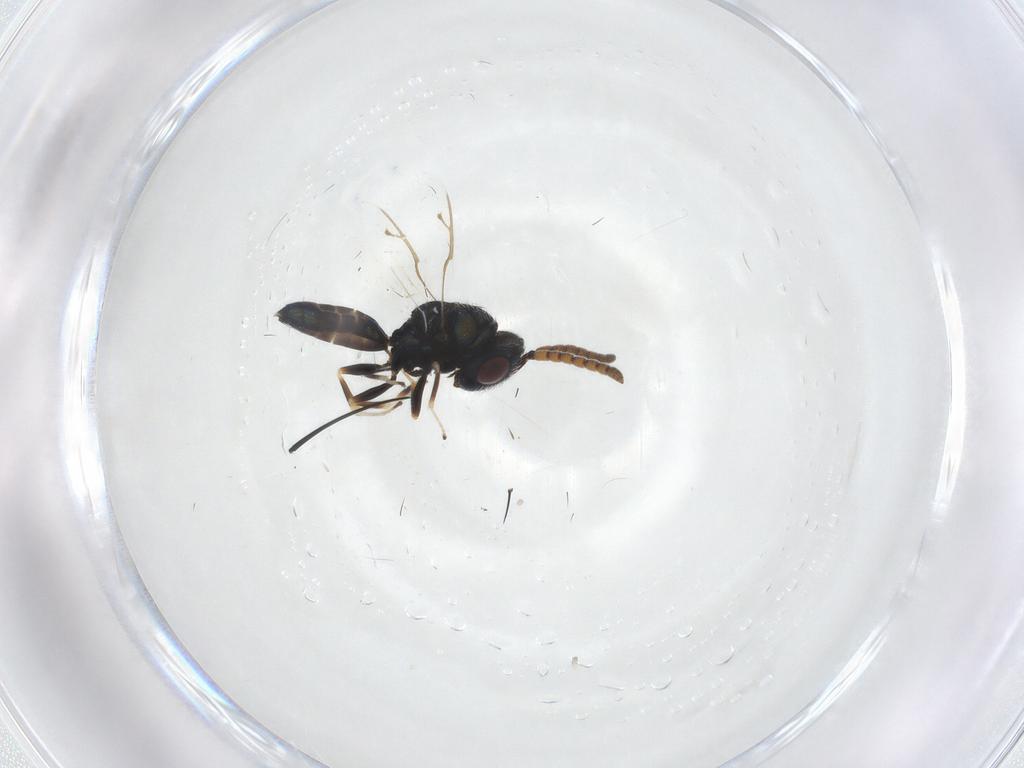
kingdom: Animalia
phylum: Arthropoda
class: Insecta
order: Hymenoptera
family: Pteromalidae
